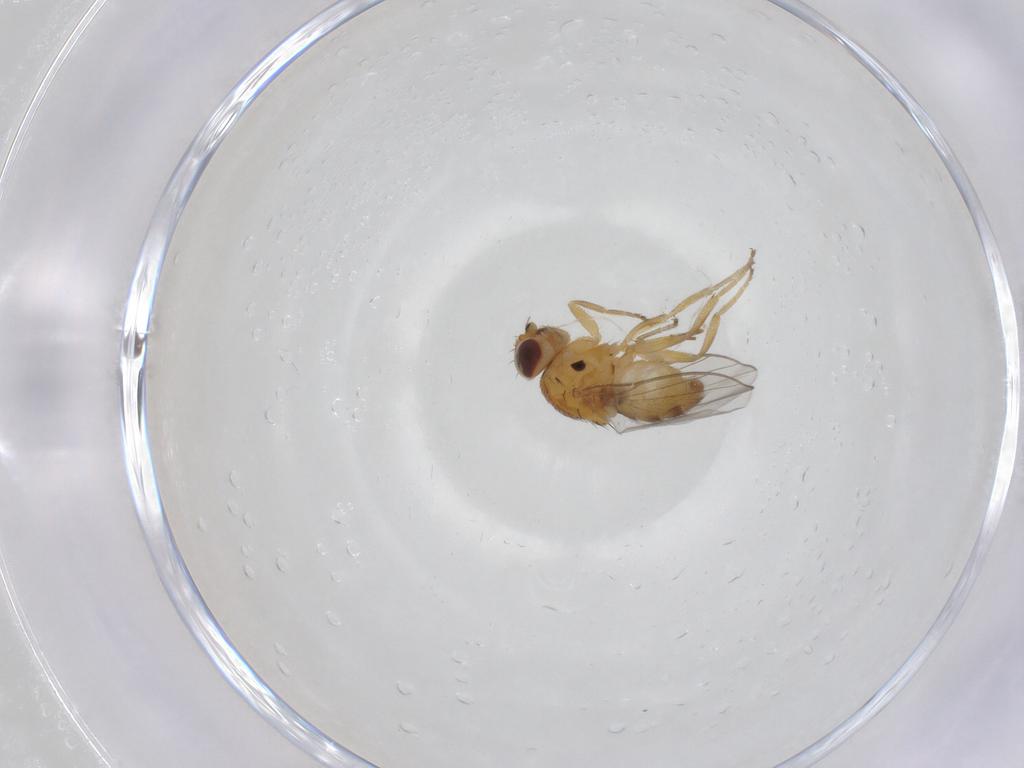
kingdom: Animalia
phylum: Arthropoda
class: Insecta
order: Diptera
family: Chloropidae
